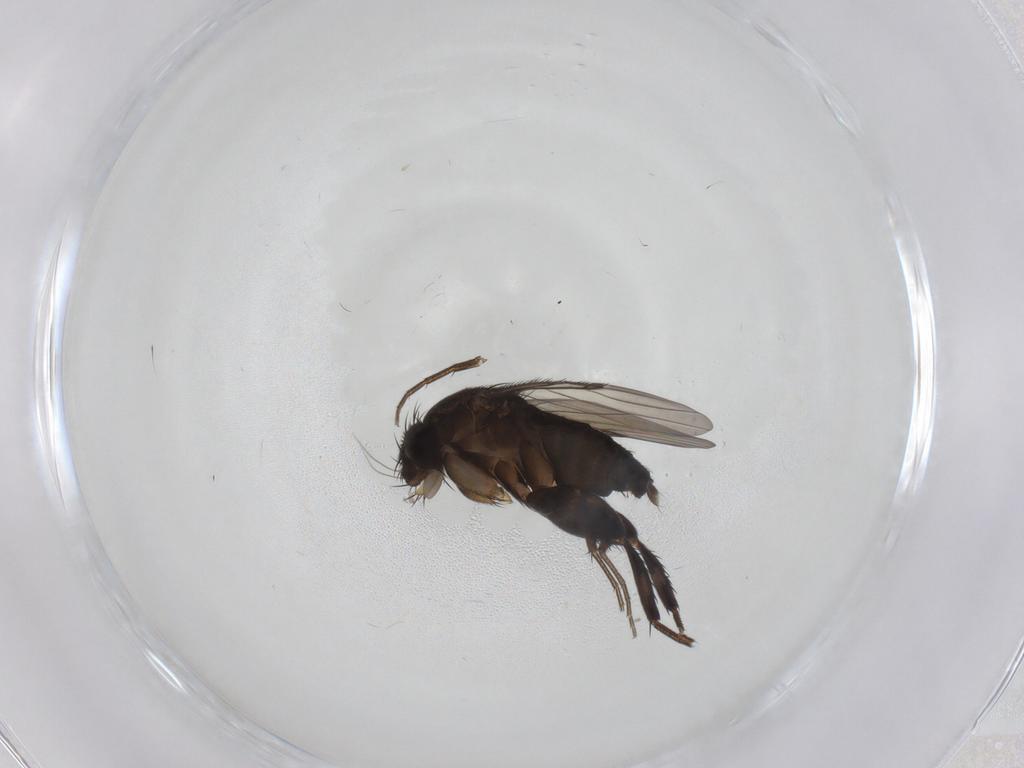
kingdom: Animalia
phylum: Arthropoda
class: Insecta
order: Diptera
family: Phoridae
